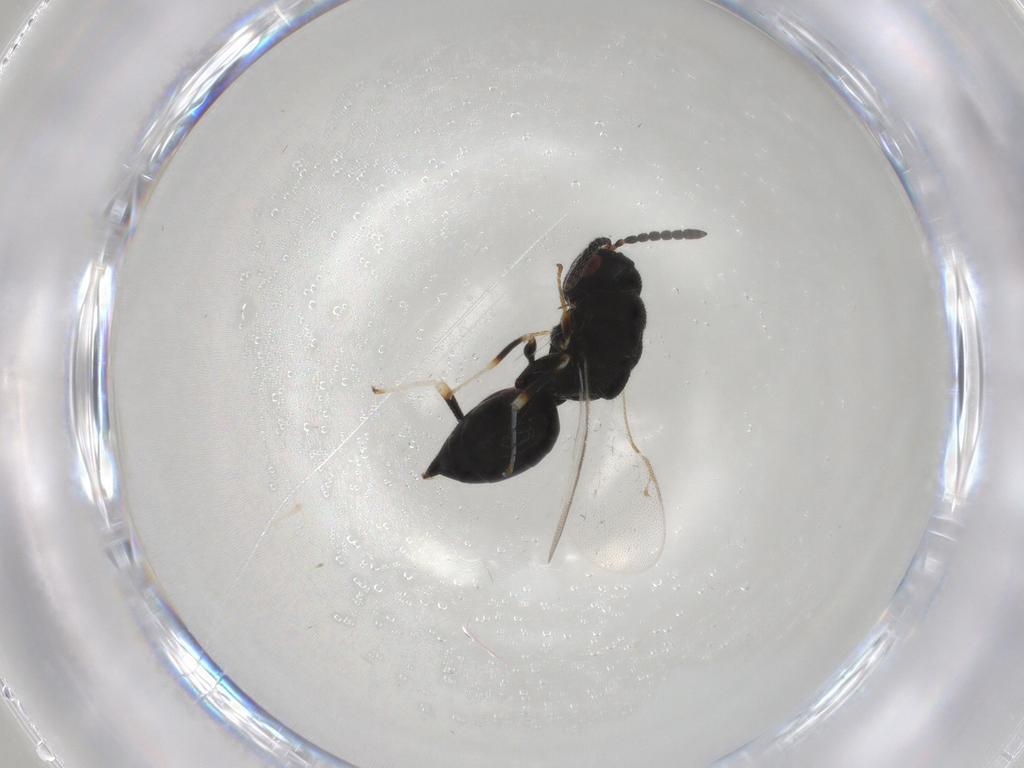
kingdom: Animalia
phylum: Arthropoda
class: Insecta
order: Hymenoptera
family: Eurytomidae
